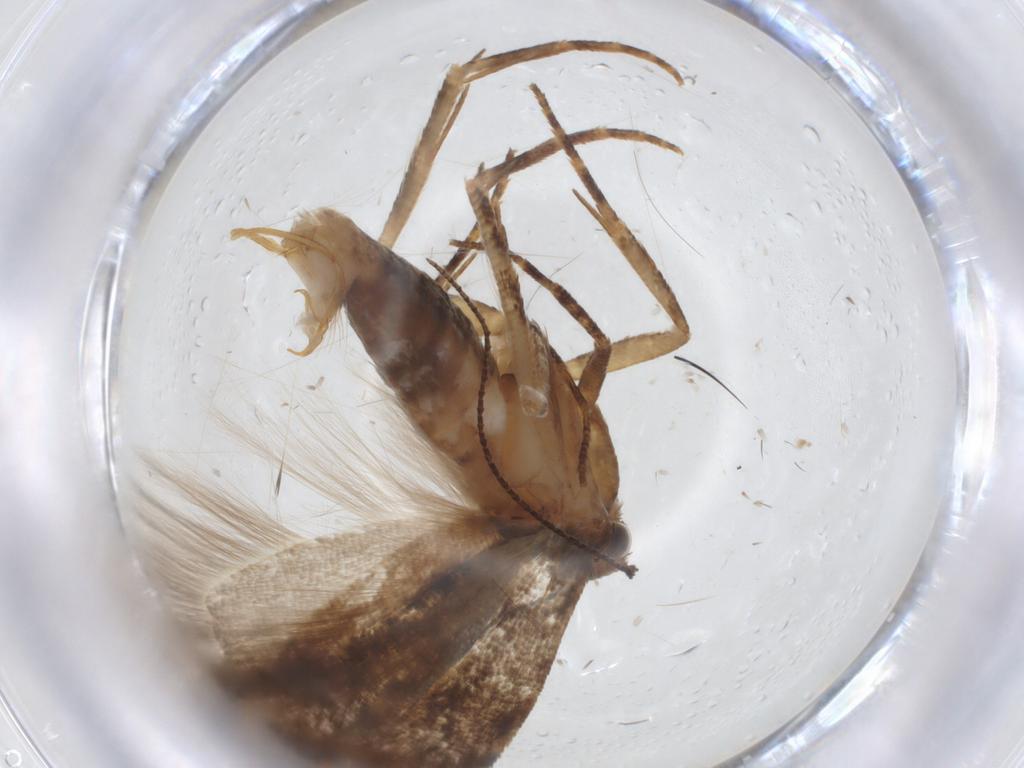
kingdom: Animalia
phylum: Arthropoda
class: Insecta
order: Lepidoptera
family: Gelechiidae
